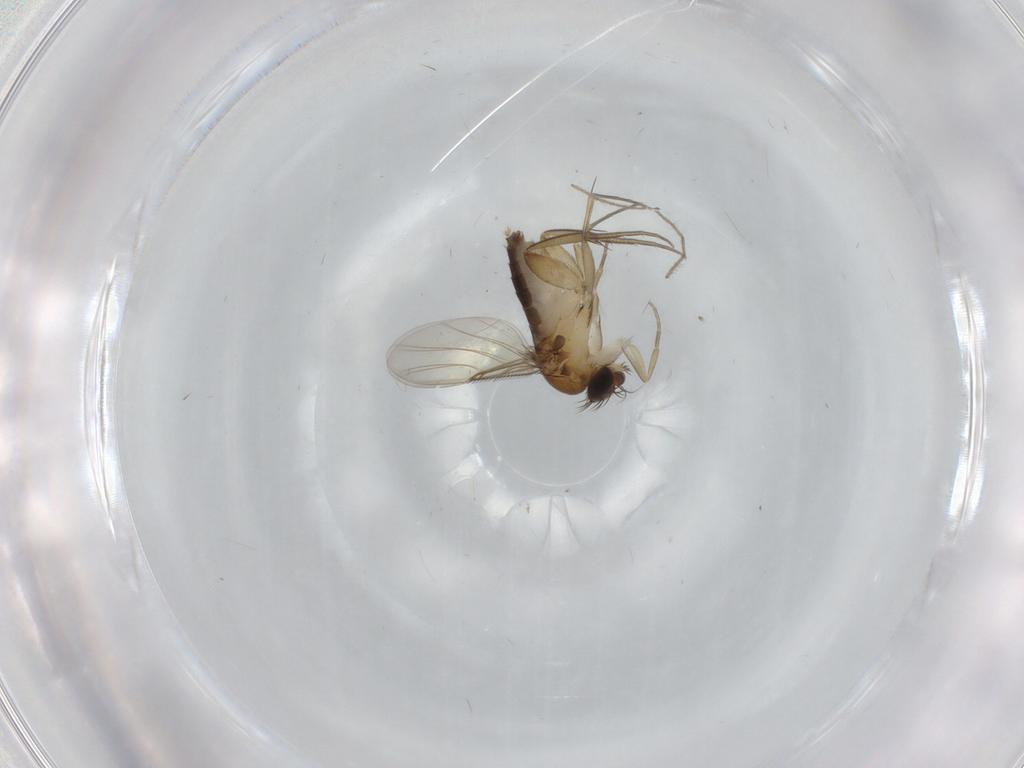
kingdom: Animalia
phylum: Arthropoda
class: Insecta
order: Diptera
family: Phoridae
